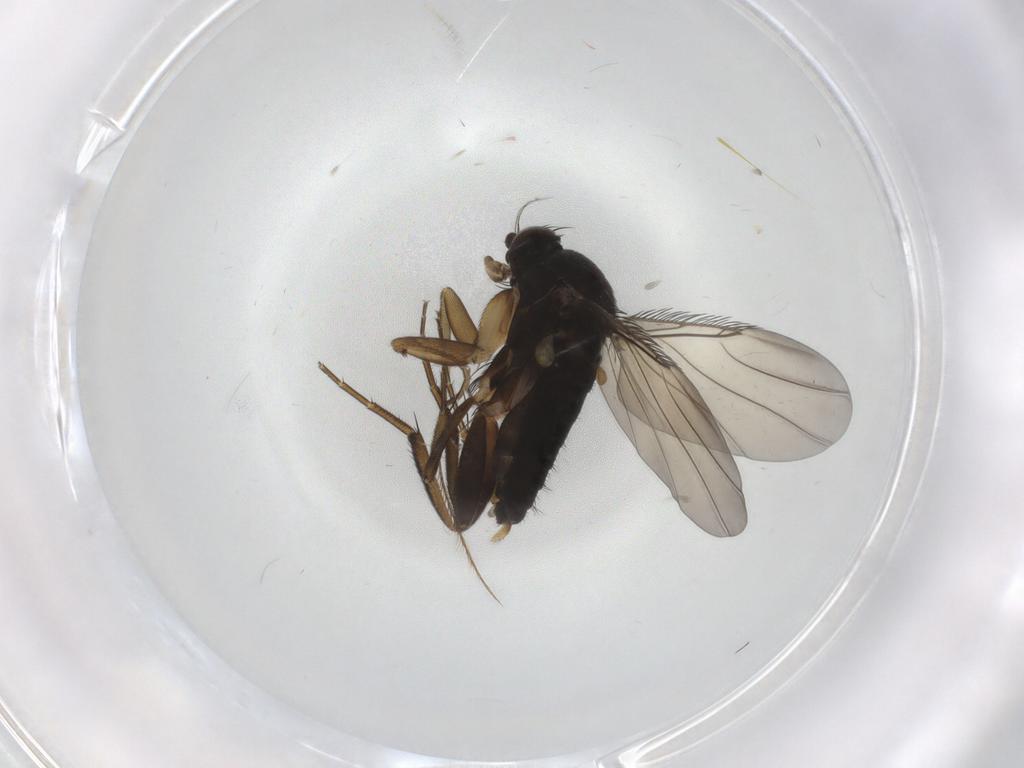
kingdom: Animalia
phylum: Arthropoda
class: Insecta
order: Diptera
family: Phoridae
